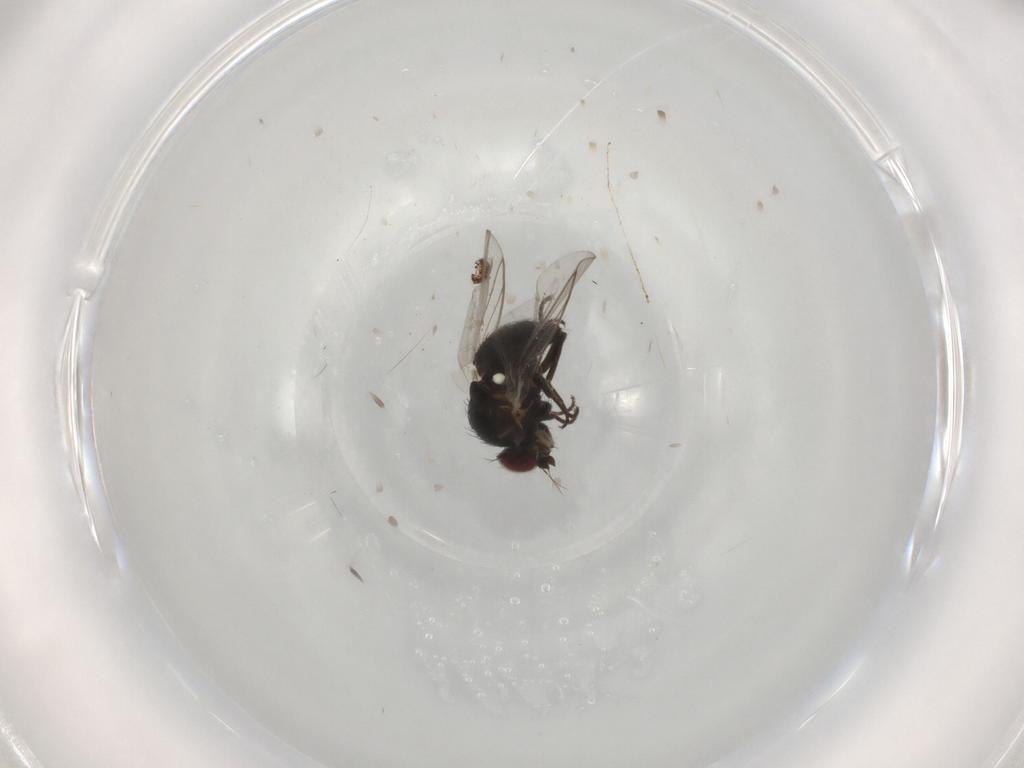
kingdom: Animalia
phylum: Arthropoda
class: Insecta
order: Diptera
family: Agromyzidae
